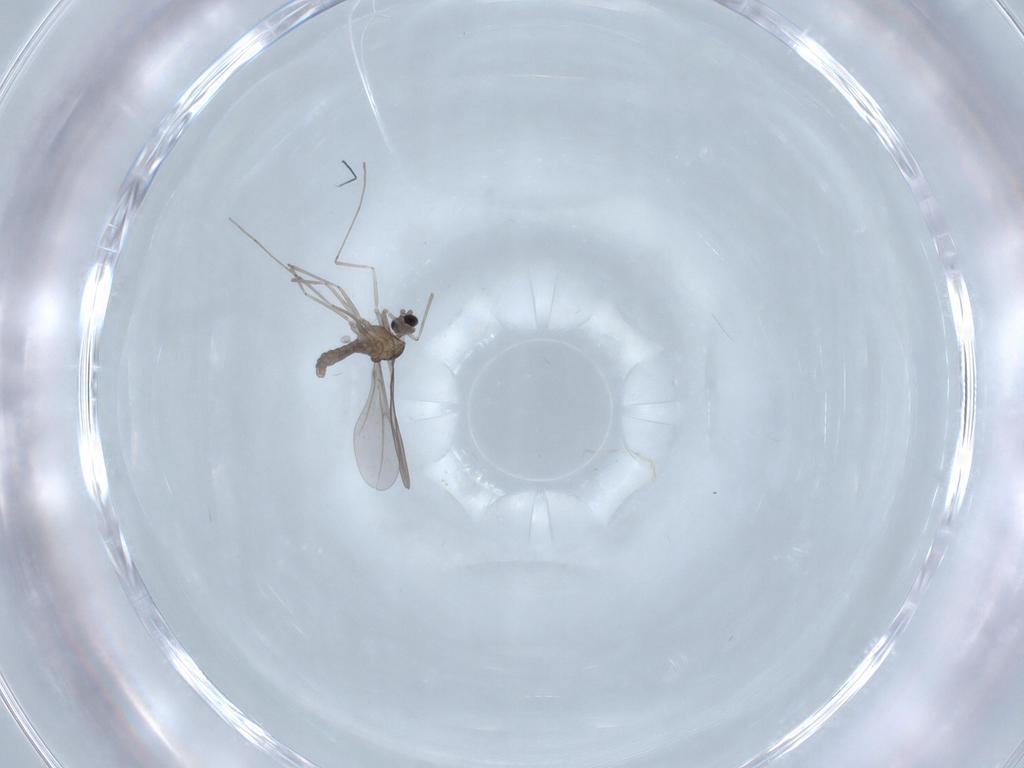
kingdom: Animalia
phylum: Arthropoda
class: Insecta
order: Diptera
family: Cecidomyiidae
